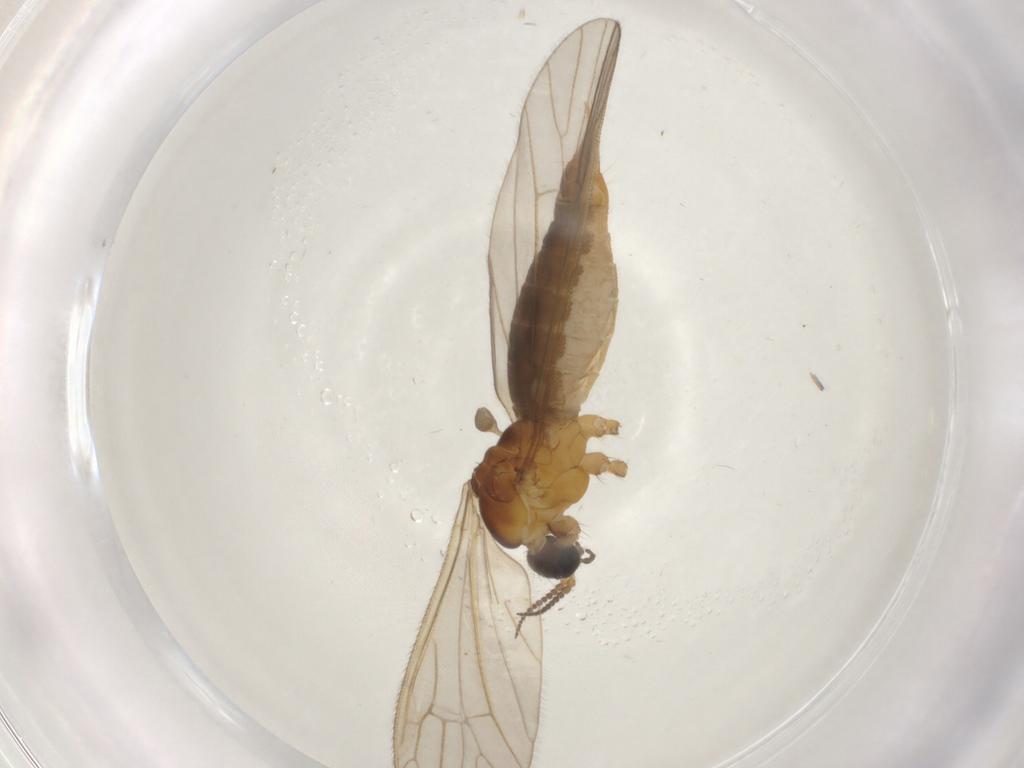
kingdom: Animalia
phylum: Arthropoda
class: Insecta
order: Diptera
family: Limoniidae
